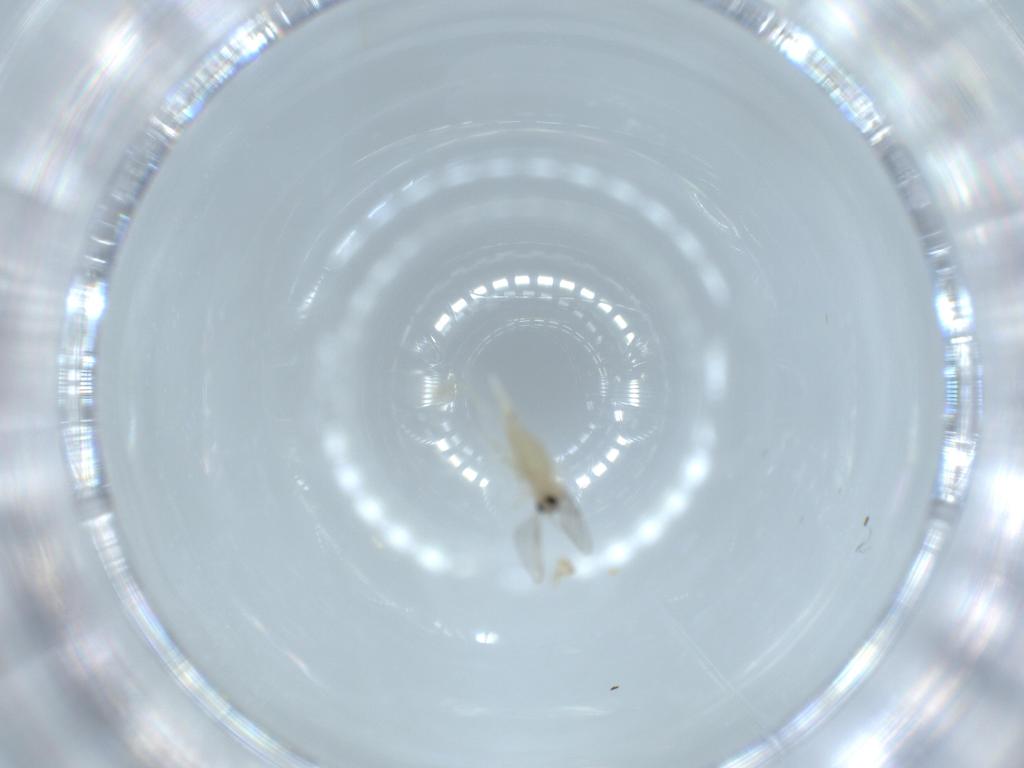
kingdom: Animalia
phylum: Arthropoda
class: Insecta
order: Diptera
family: Cecidomyiidae
